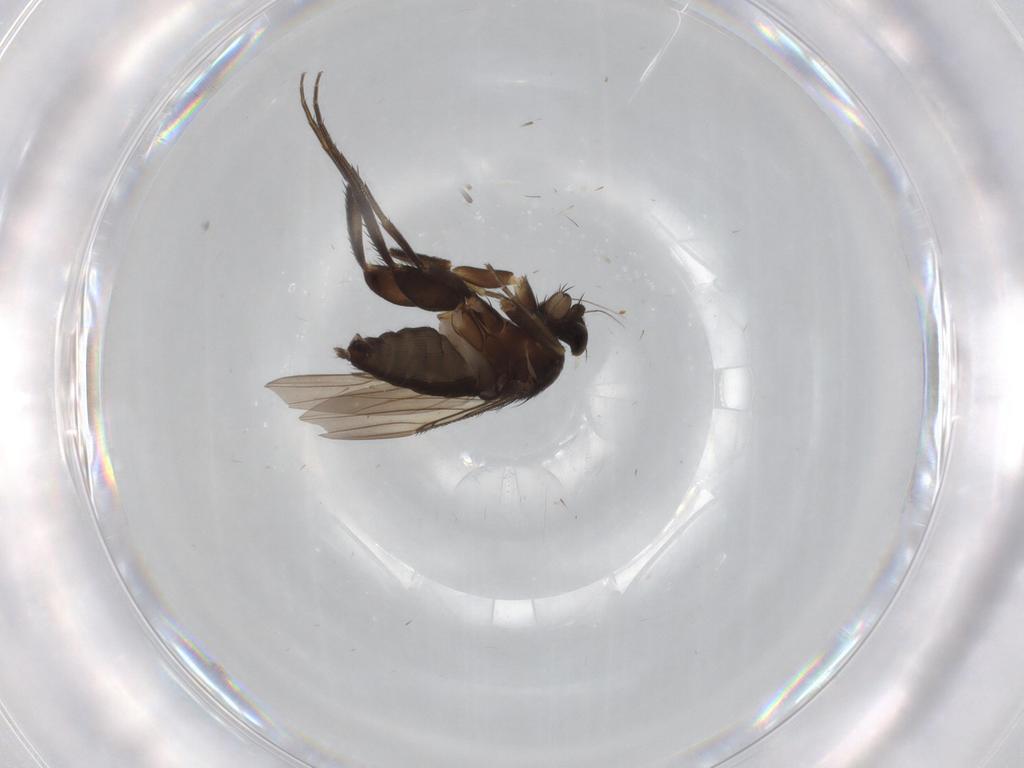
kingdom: Animalia
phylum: Arthropoda
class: Insecta
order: Diptera
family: Phoridae
